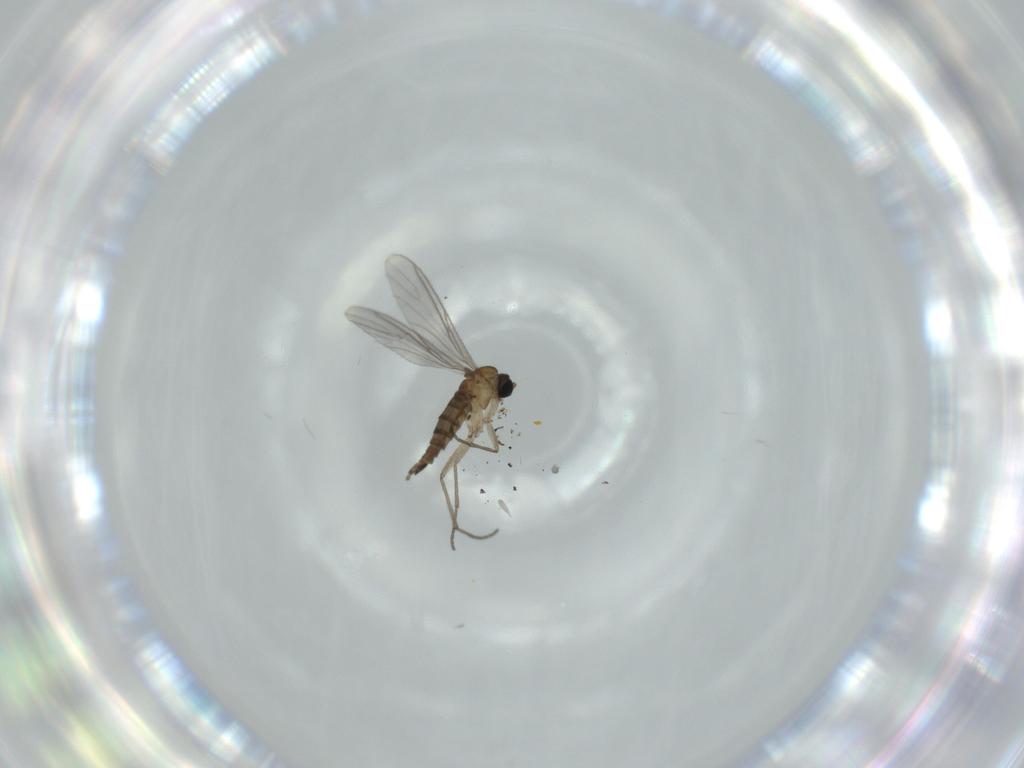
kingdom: Animalia
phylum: Arthropoda
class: Insecta
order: Diptera
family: Sciaridae
